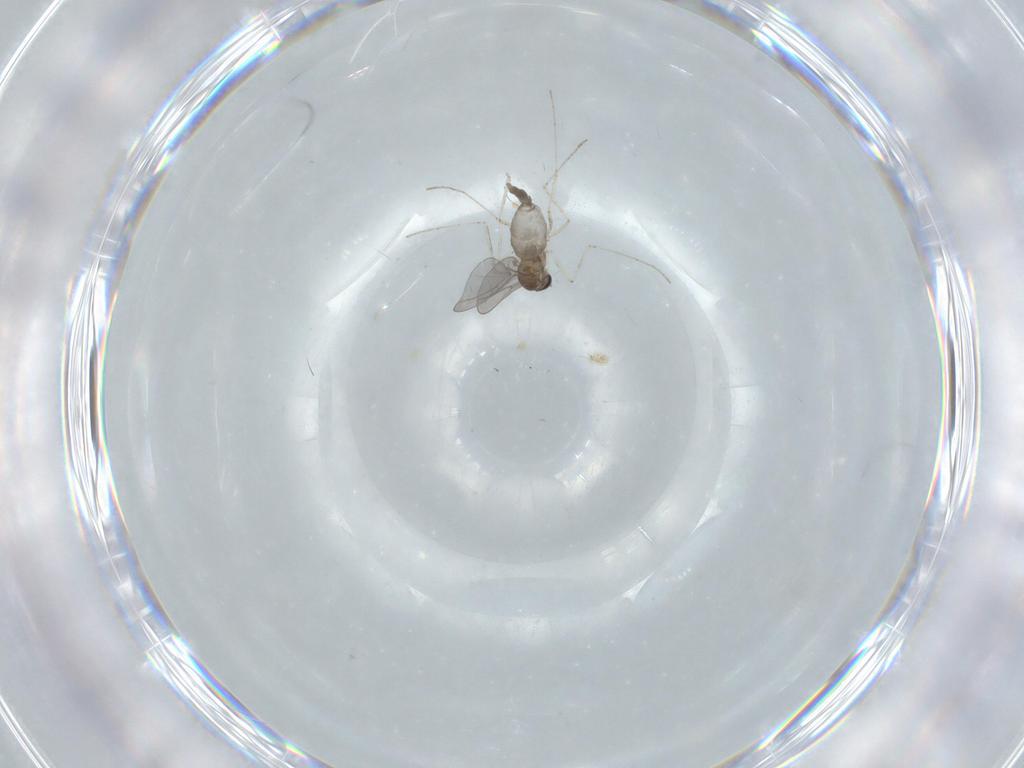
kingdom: Animalia
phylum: Arthropoda
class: Insecta
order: Diptera
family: Cecidomyiidae
